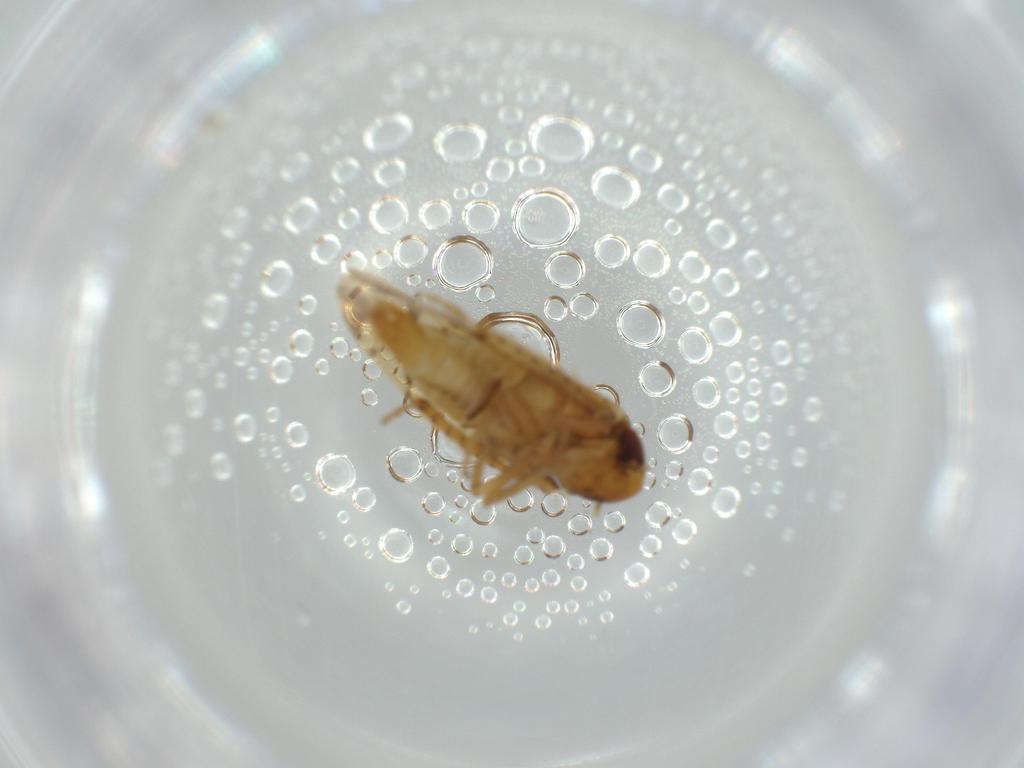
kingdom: Animalia
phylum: Arthropoda
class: Insecta
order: Hemiptera
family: Cicadellidae
